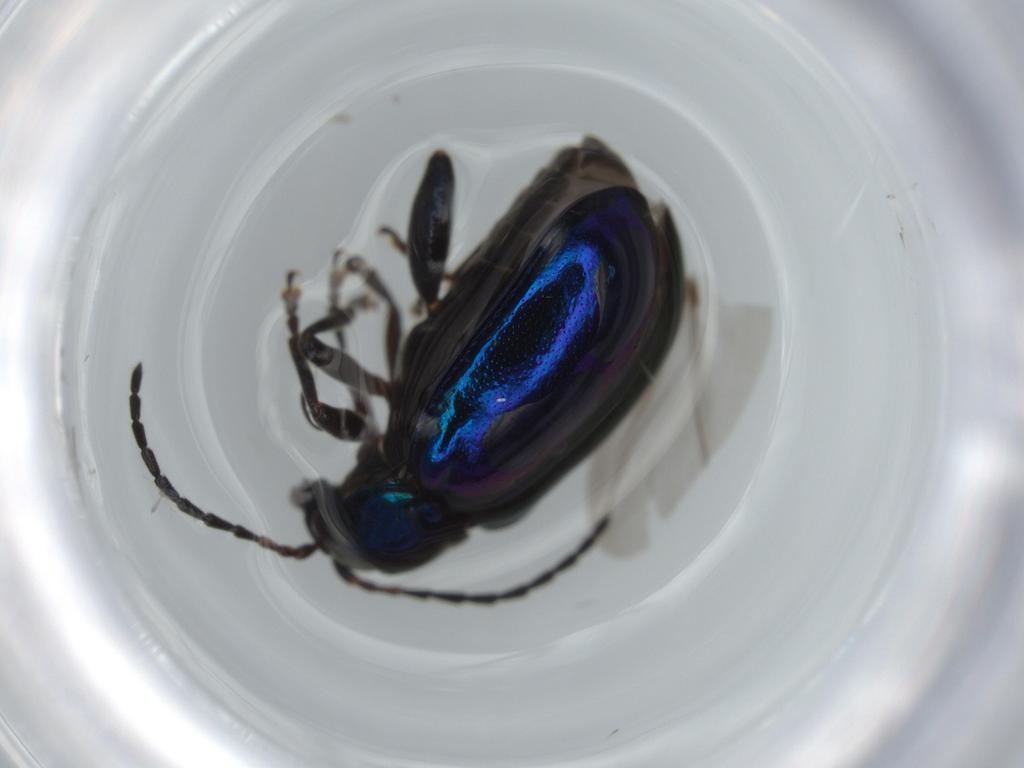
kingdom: Animalia
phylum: Arthropoda
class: Insecta
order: Coleoptera
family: Chrysomelidae
